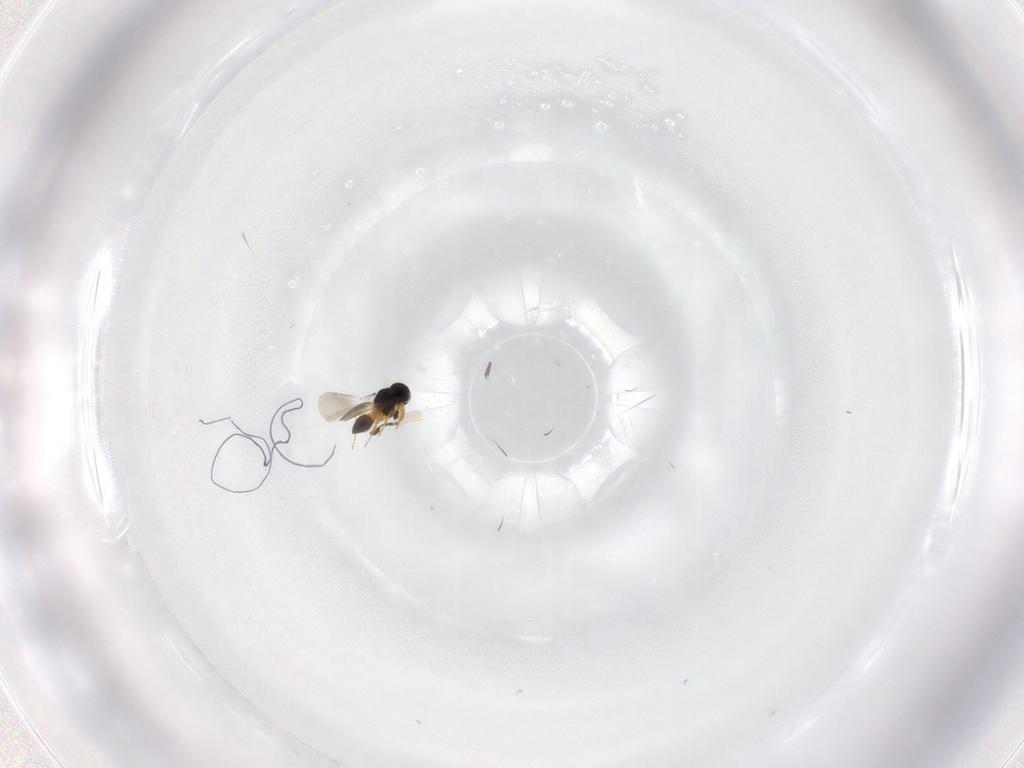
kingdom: Animalia
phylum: Arthropoda
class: Insecta
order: Hymenoptera
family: Platygastridae
